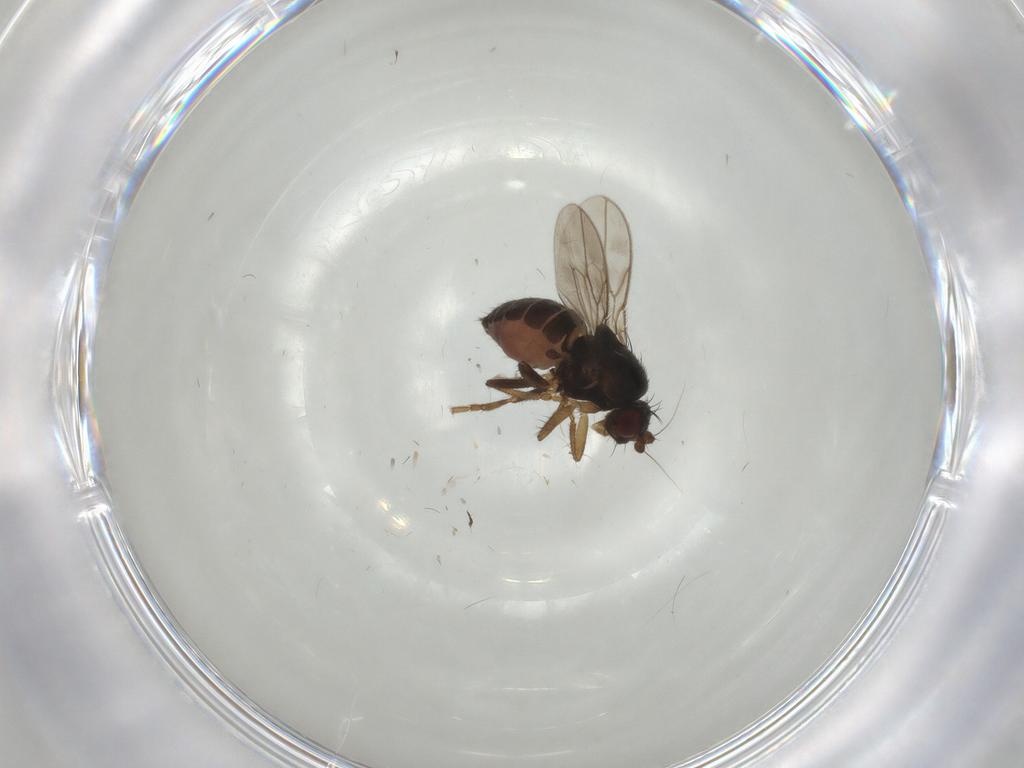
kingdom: Animalia
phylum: Arthropoda
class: Insecta
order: Diptera
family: Sphaeroceridae
